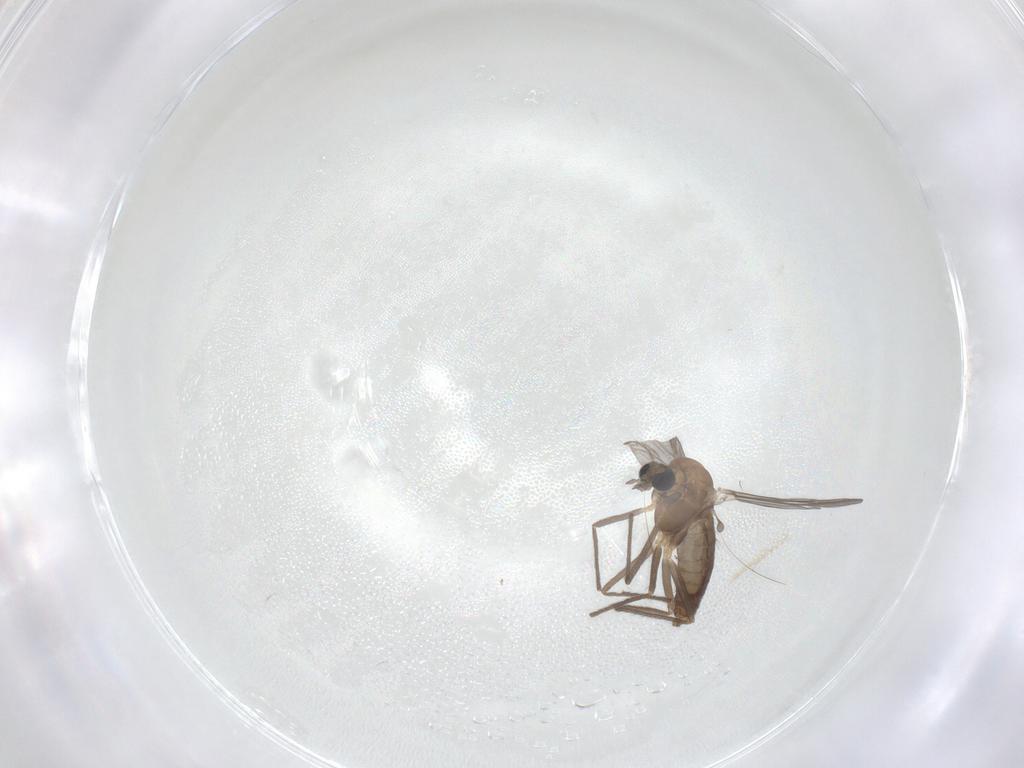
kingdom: Animalia
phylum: Arthropoda
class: Insecta
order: Diptera
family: Chironomidae
